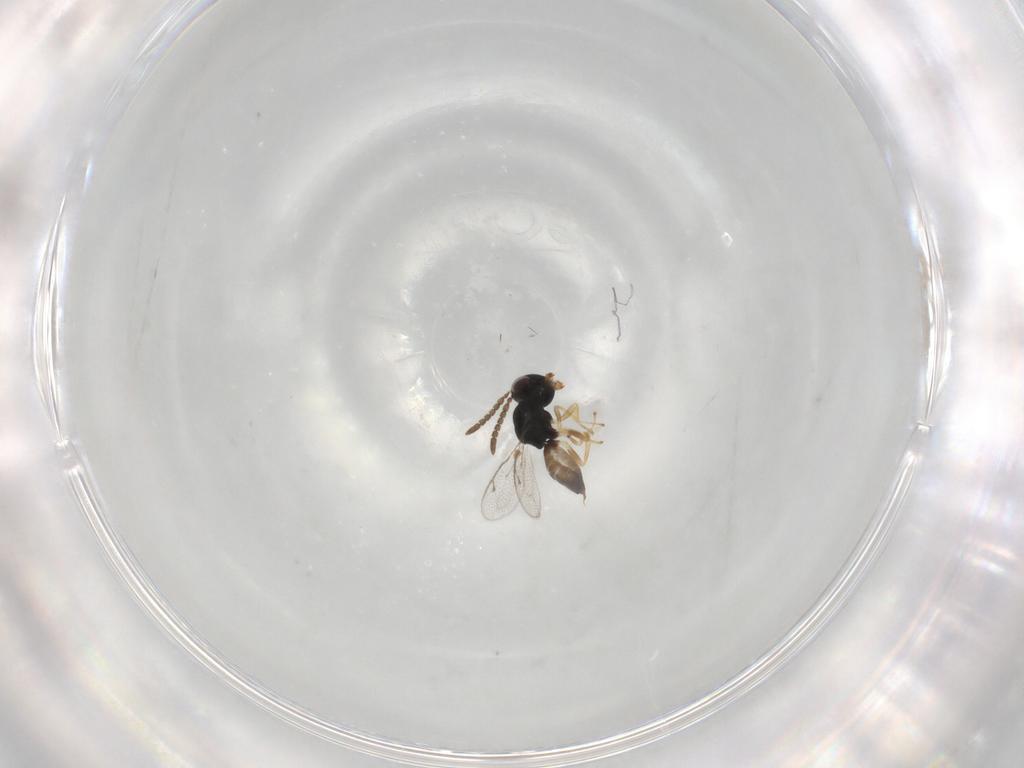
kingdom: Animalia
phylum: Arthropoda
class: Insecta
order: Hymenoptera
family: Pteromalidae
